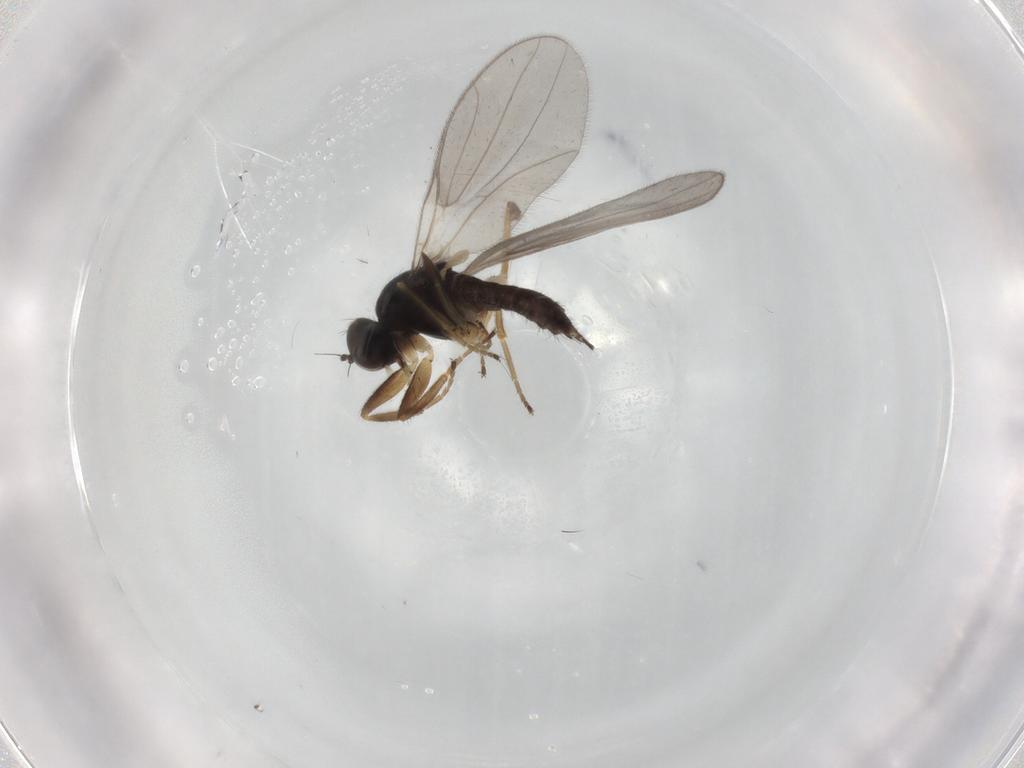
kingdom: Animalia
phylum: Arthropoda
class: Insecta
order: Diptera
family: Hybotidae
